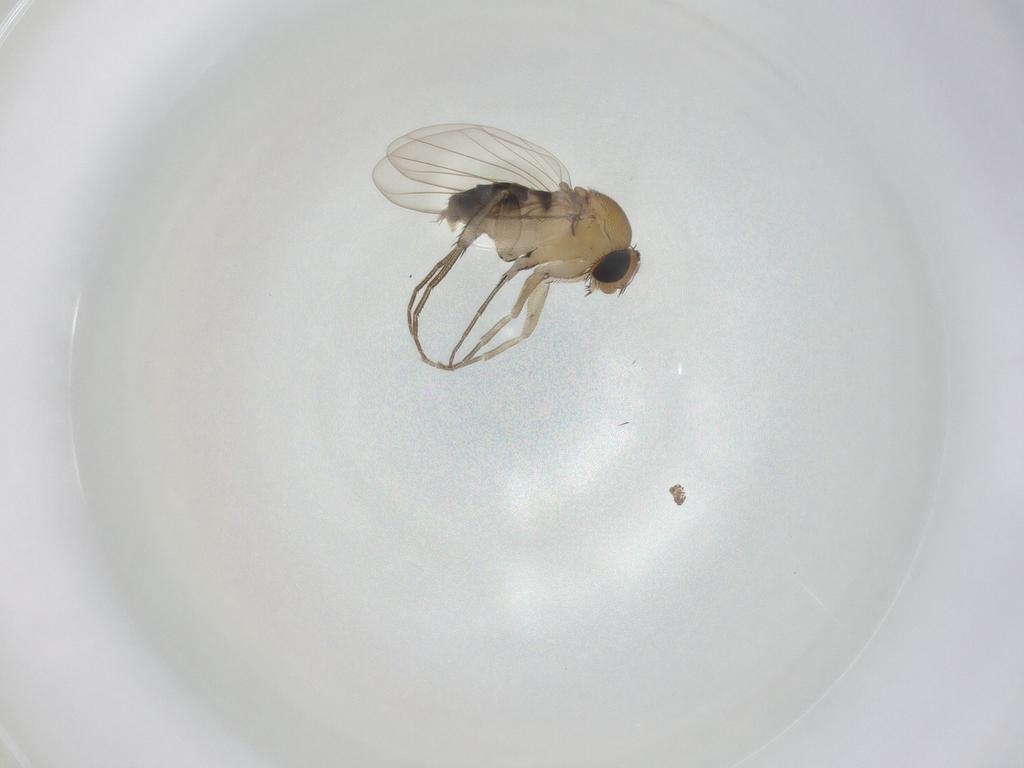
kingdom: Animalia
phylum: Arthropoda
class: Insecta
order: Diptera
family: Phoridae
